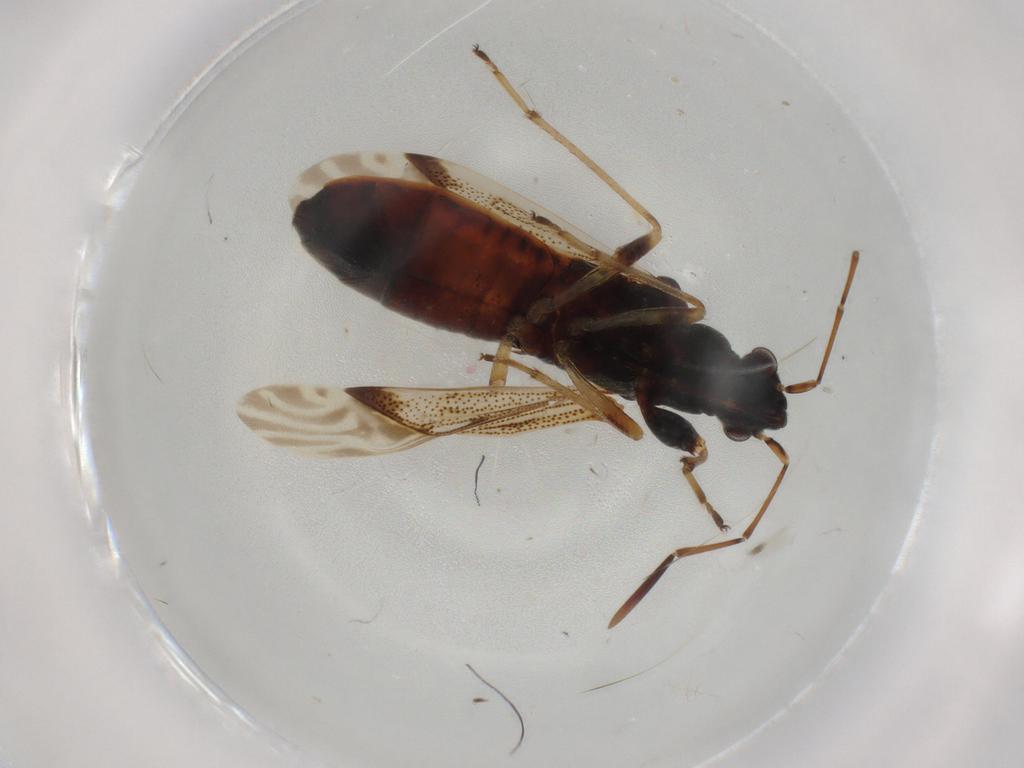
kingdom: Animalia
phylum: Arthropoda
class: Insecta
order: Hemiptera
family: Rhyparochromidae
